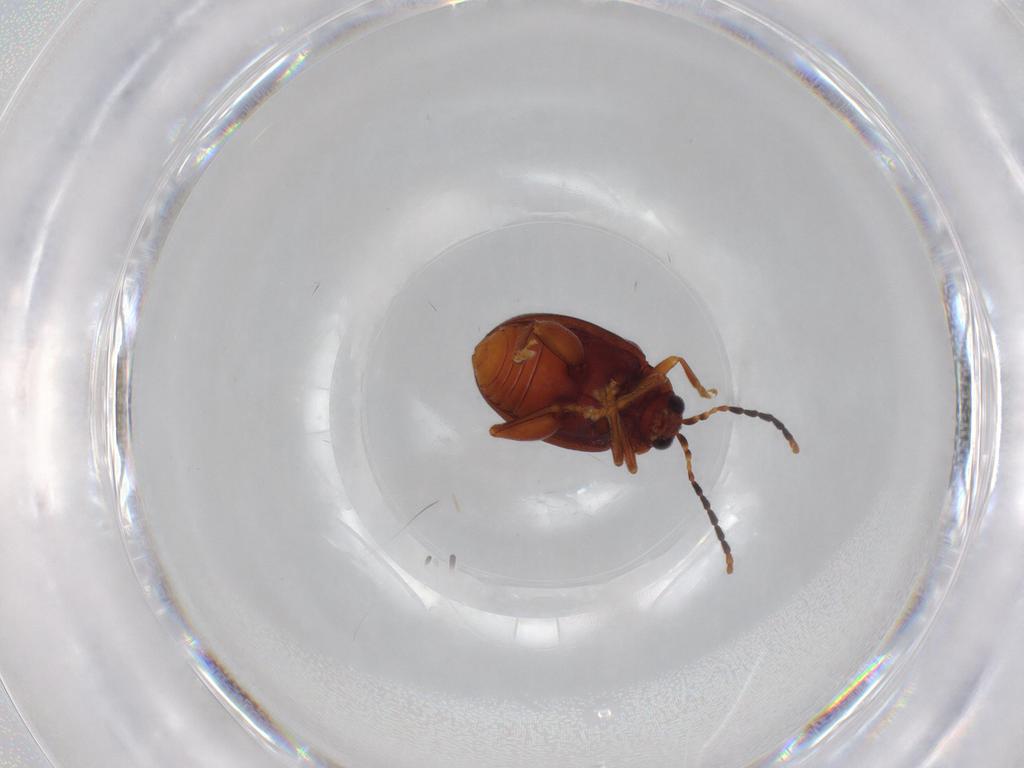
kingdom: Animalia
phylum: Arthropoda
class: Insecta
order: Coleoptera
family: Chrysomelidae
